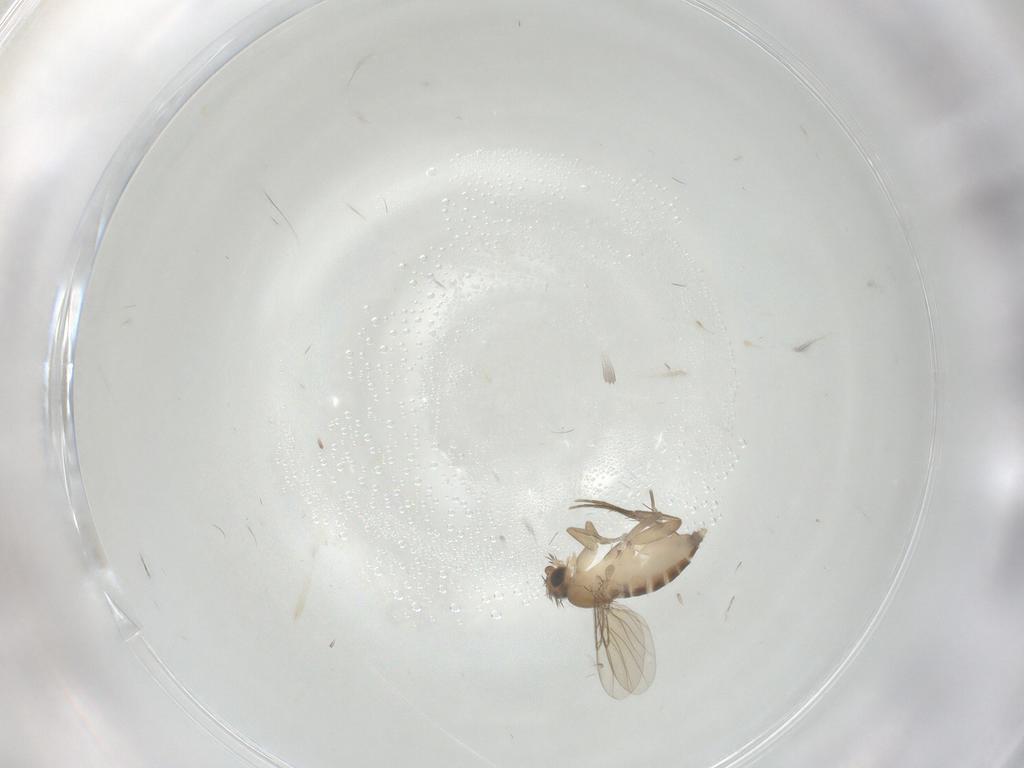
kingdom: Animalia
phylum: Arthropoda
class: Insecta
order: Diptera
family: Phoridae
